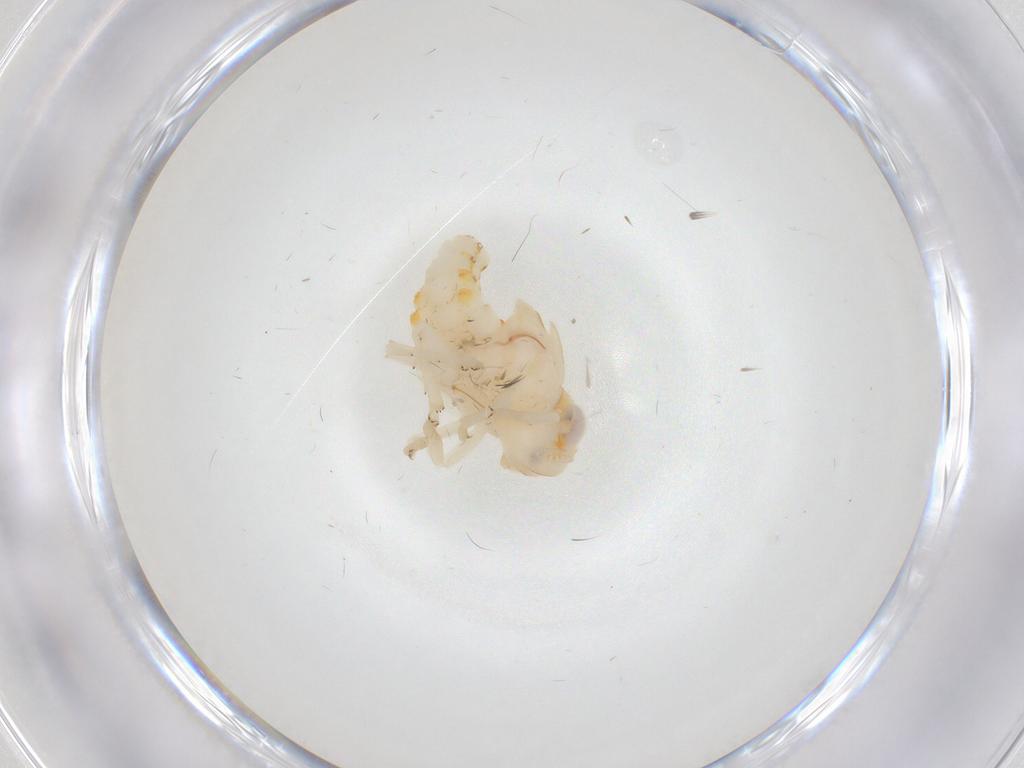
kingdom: Animalia
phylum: Arthropoda
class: Insecta
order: Hemiptera
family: Nogodinidae
